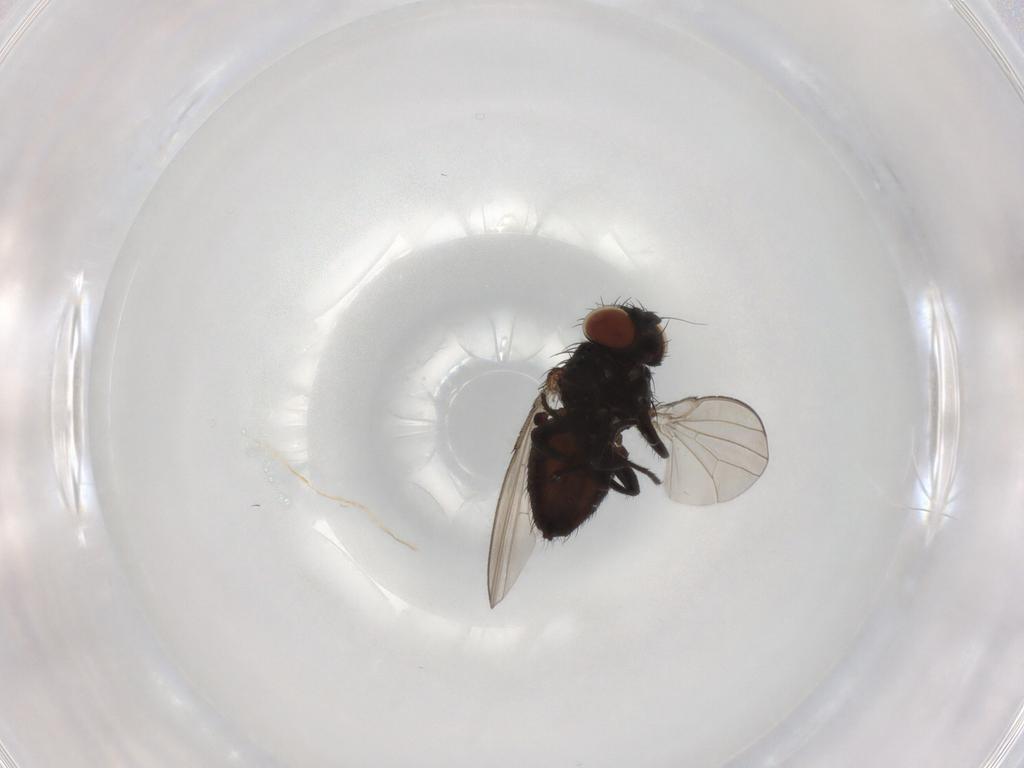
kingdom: Animalia
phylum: Arthropoda
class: Insecta
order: Diptera
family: Milichiidae
